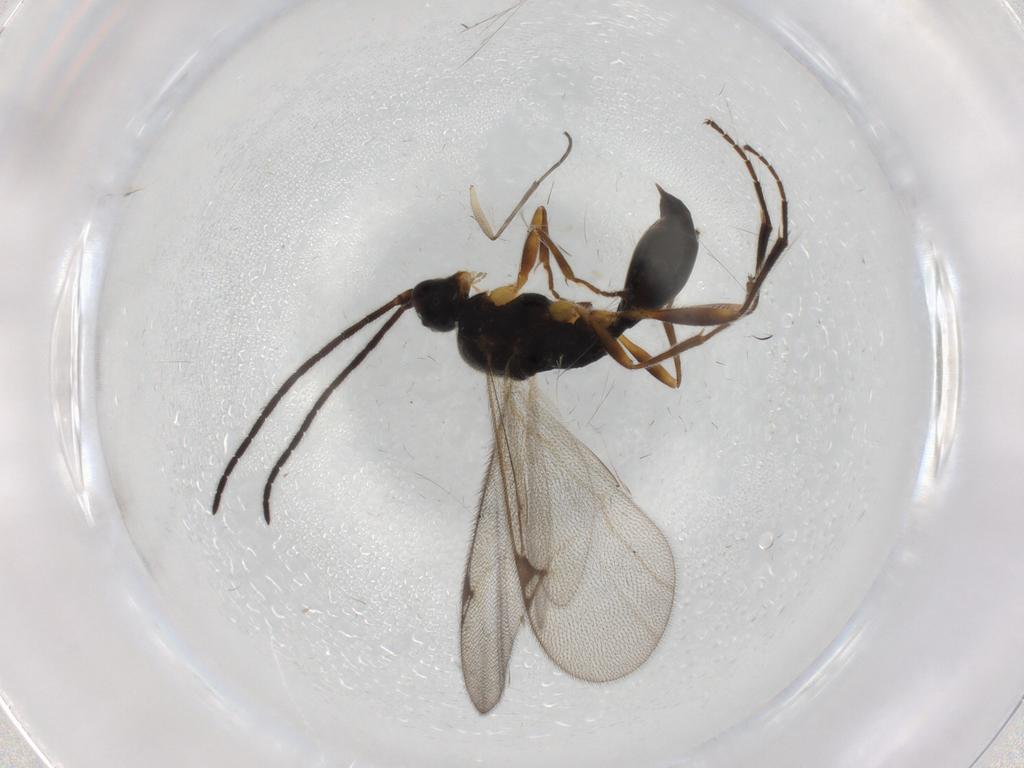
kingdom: Animalia
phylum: Arthropoda
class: Insecta
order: Hymenoptera
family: Proctotrupidae
